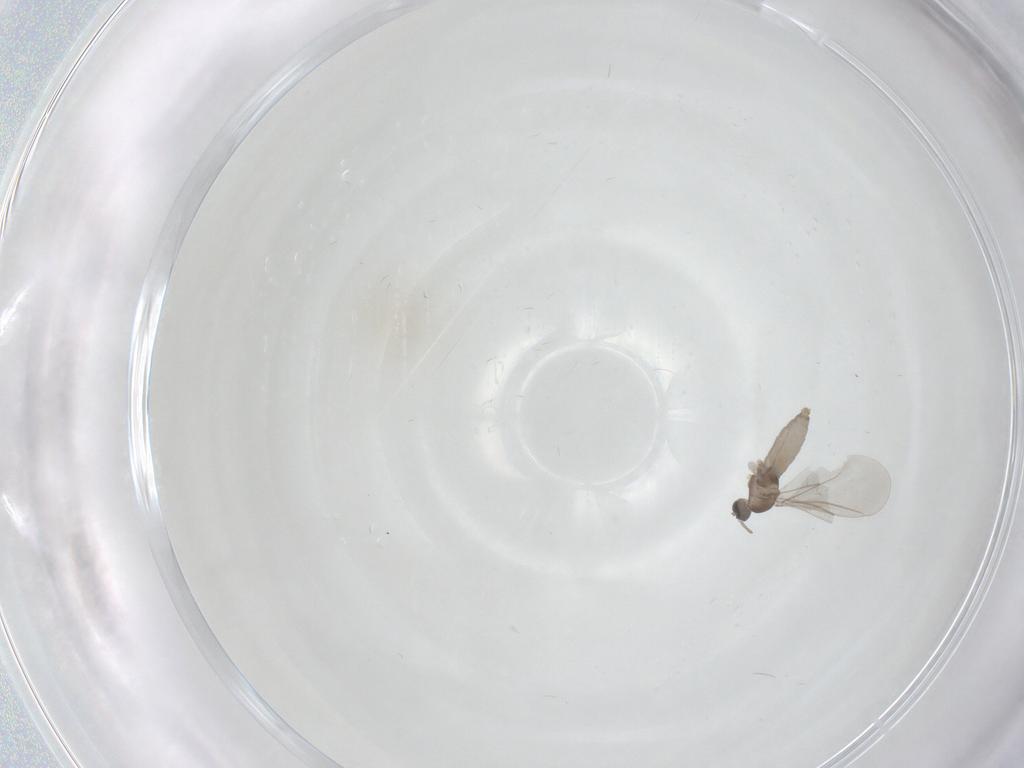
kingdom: Animalia
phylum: Arthropoda
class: Insecta
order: Diptera
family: Cecidomyiidae
